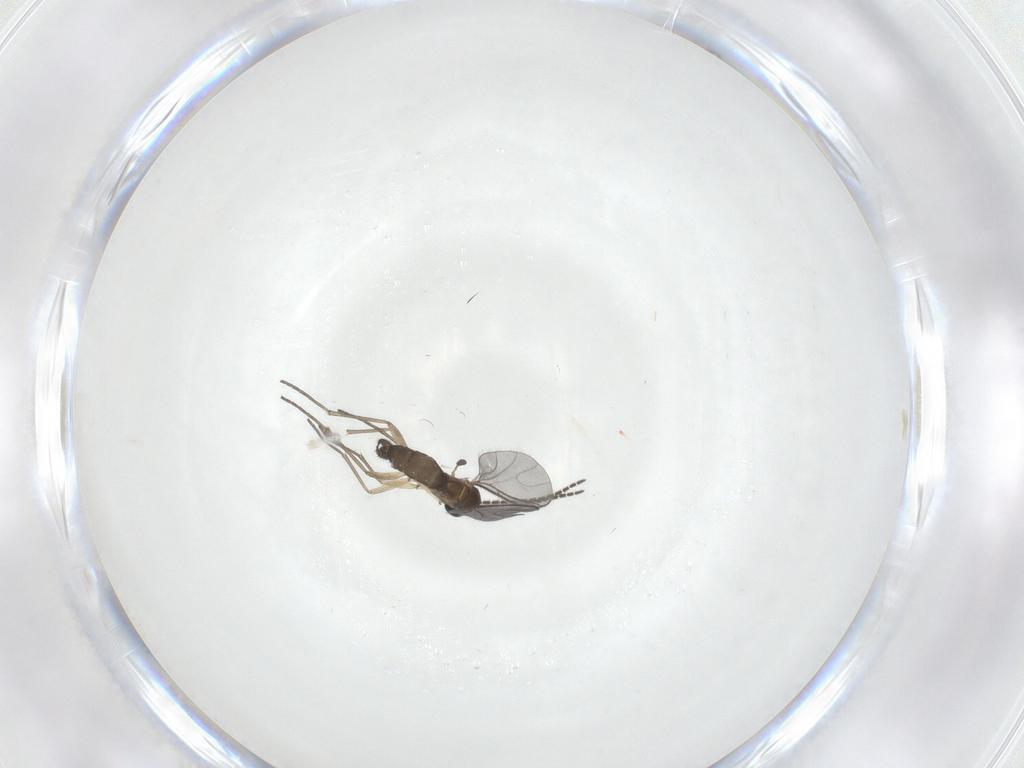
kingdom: Animalia
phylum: Arthropoda
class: Insecta
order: Diptera
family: Sciaridae
